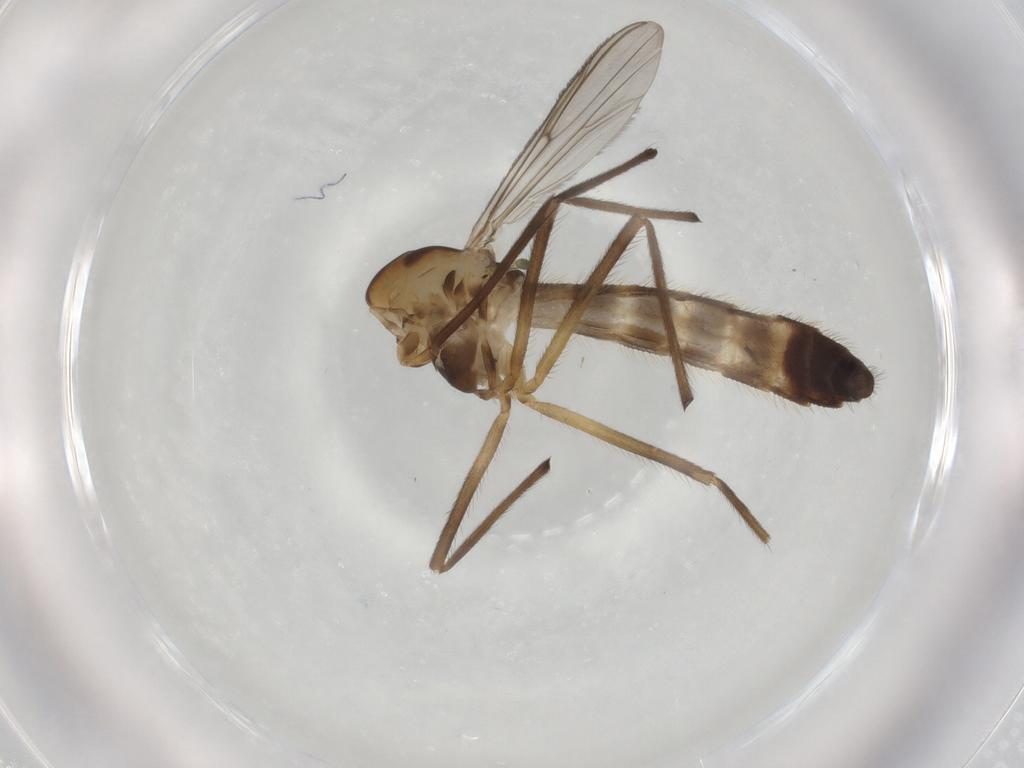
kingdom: Animalia
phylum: Arthropoda
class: Insecta
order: Diptera
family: Chironomidae
